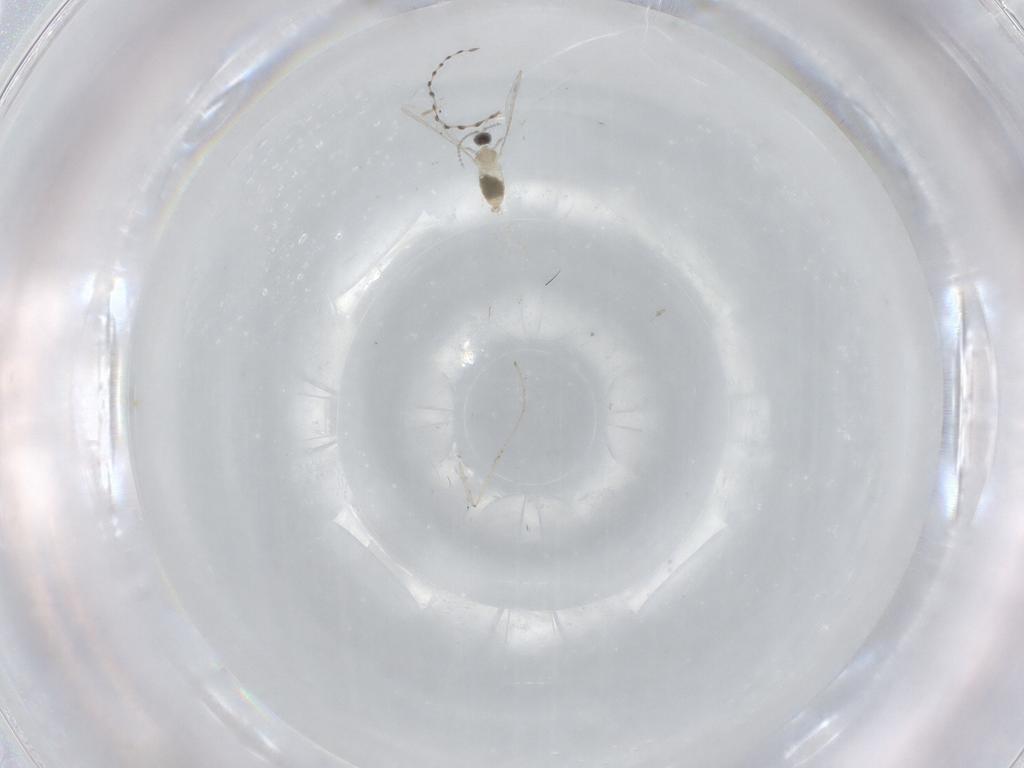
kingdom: Animalia
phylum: Arthropoda
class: Insecta
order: Diptera
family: Cecidomyiidae
